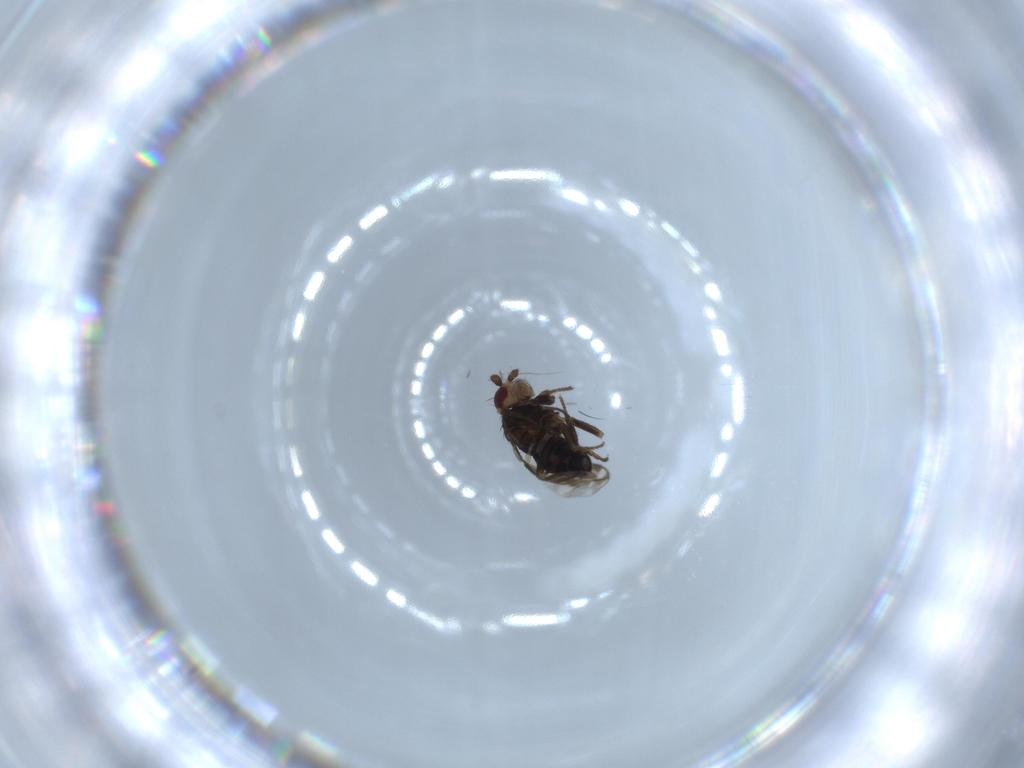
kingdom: Animalia
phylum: Arthropoda
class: Insecta
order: Diptera
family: Sphaeroceridae
